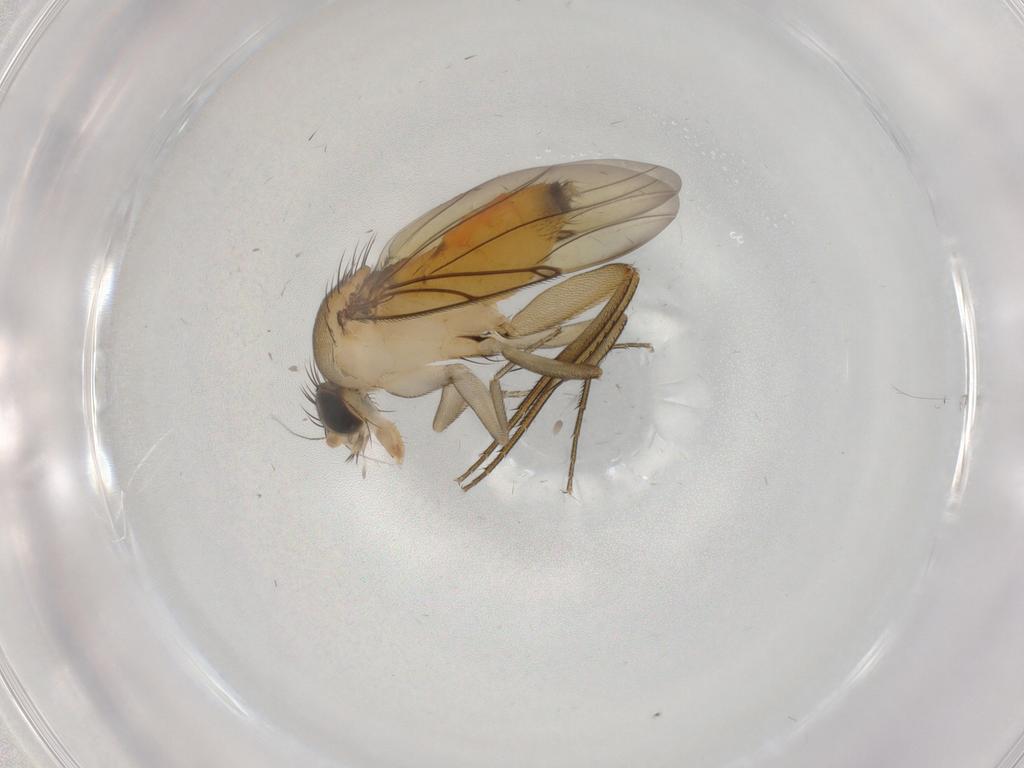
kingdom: Animalia
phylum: Arthropoda
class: Insecta
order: Diptera
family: Phoridae
